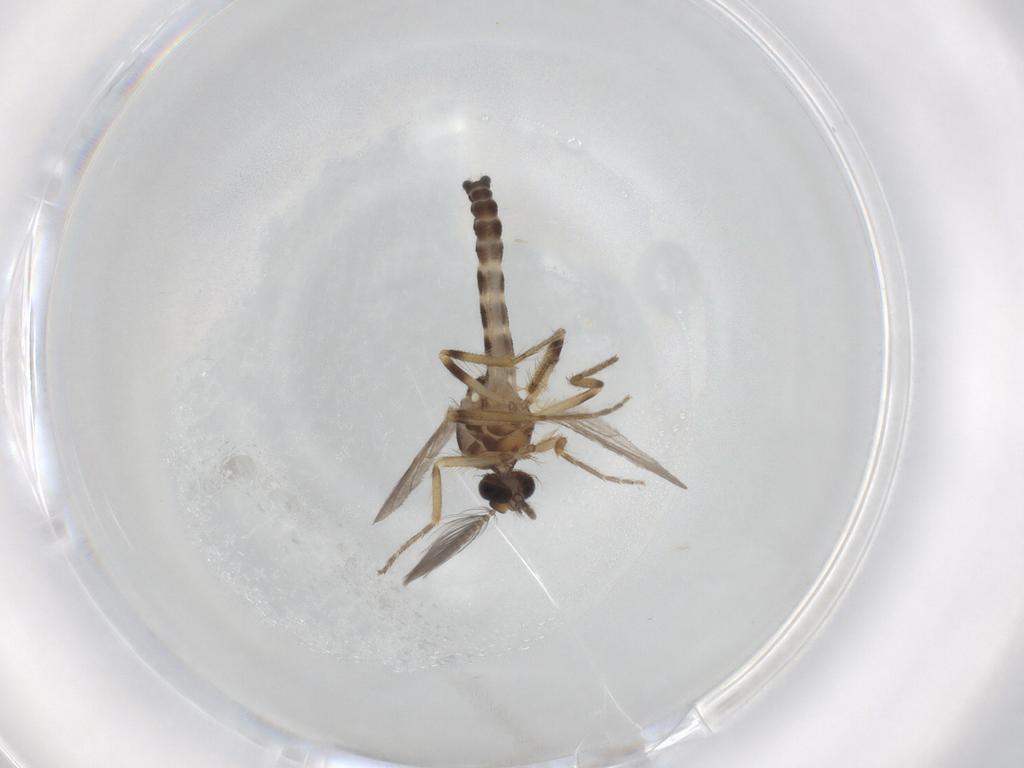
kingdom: Animalia
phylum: Arthropoda
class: Insecta
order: Diptera
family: Ceratopogonidae
